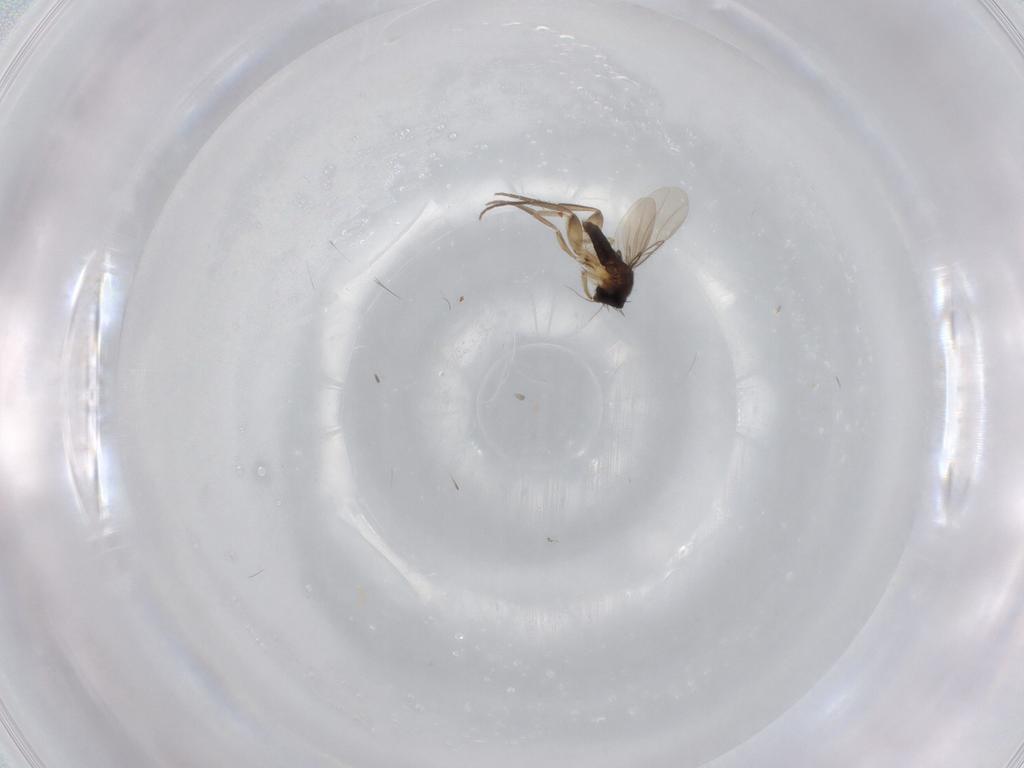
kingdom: Animalia
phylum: Arthropoda
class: Insecta
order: Diptera
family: Phoridae
